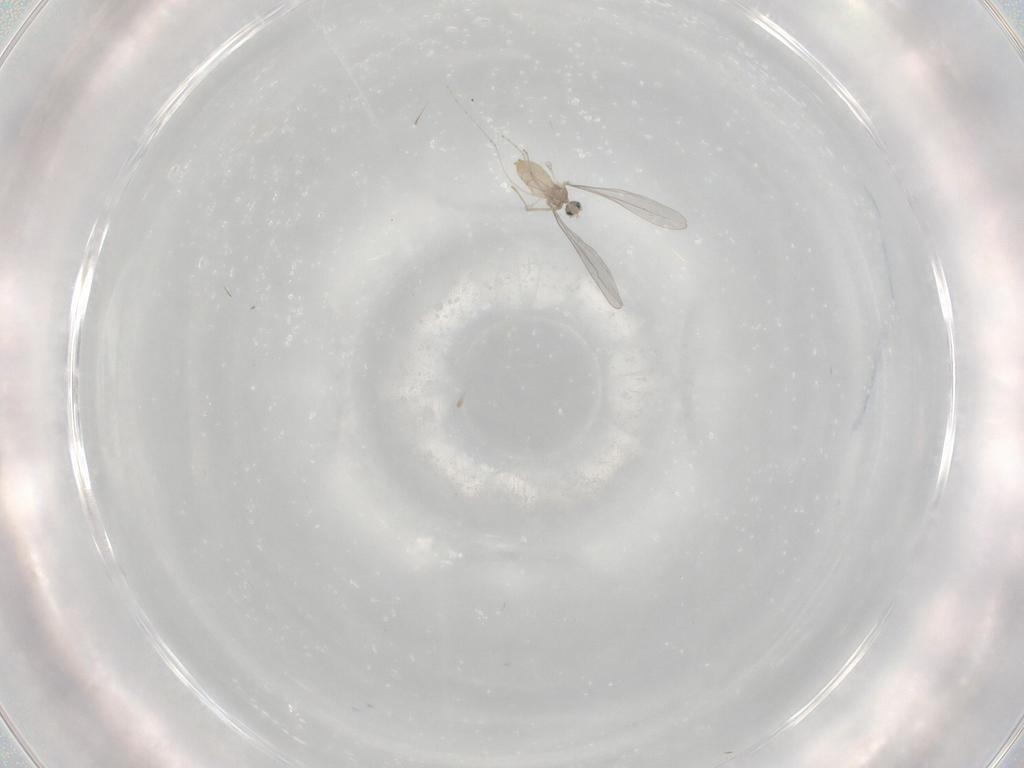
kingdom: Animalia
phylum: Arthropoda
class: Insecta
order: Diptera
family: Cecidomyiidae
